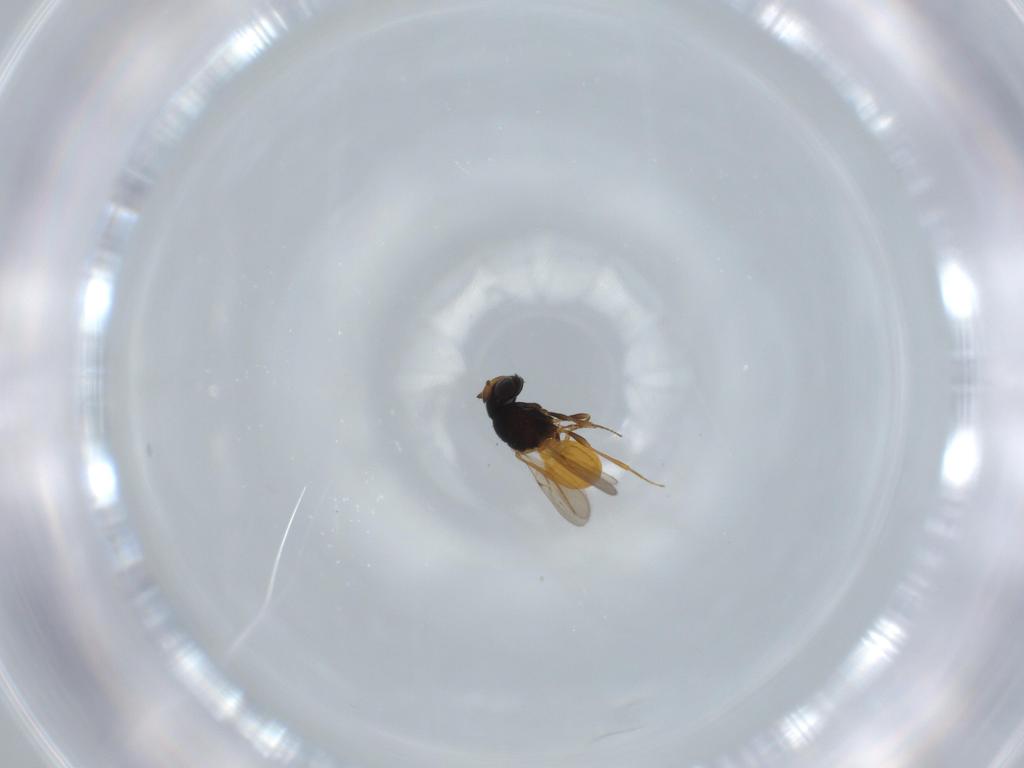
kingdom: Animalia
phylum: Arthropoda
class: Insecta
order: Hymenoptera
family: Scelionidae
